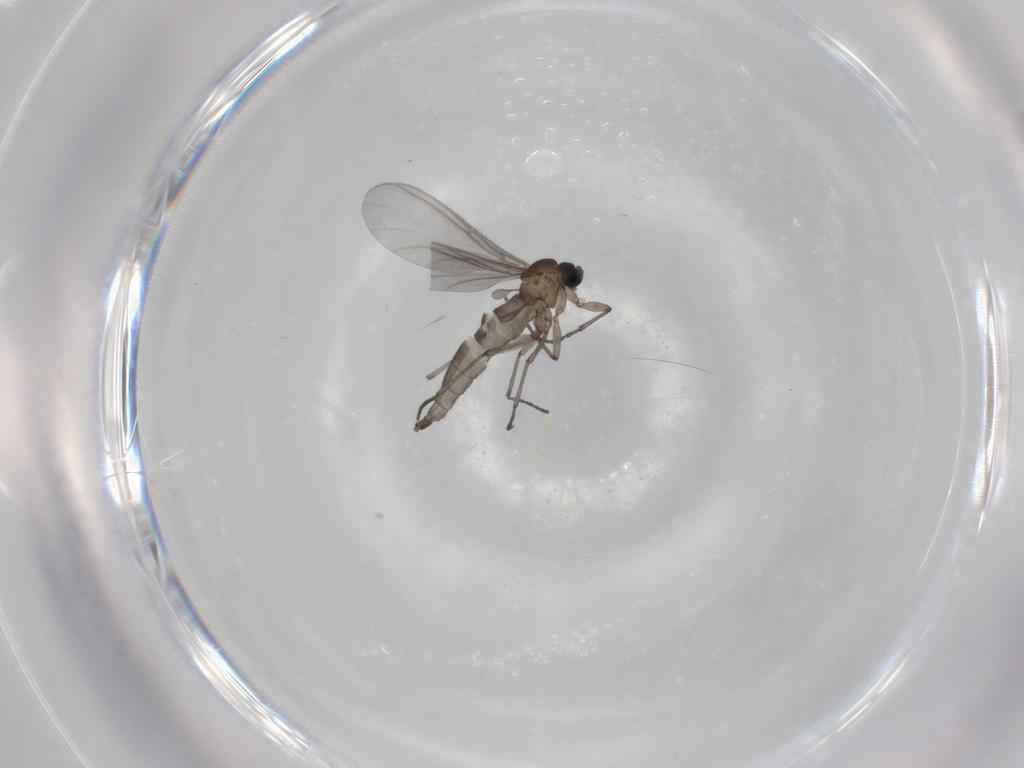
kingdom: Animalia
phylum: Arthropoda
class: Insecta
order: Diptera
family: Sciaridae
